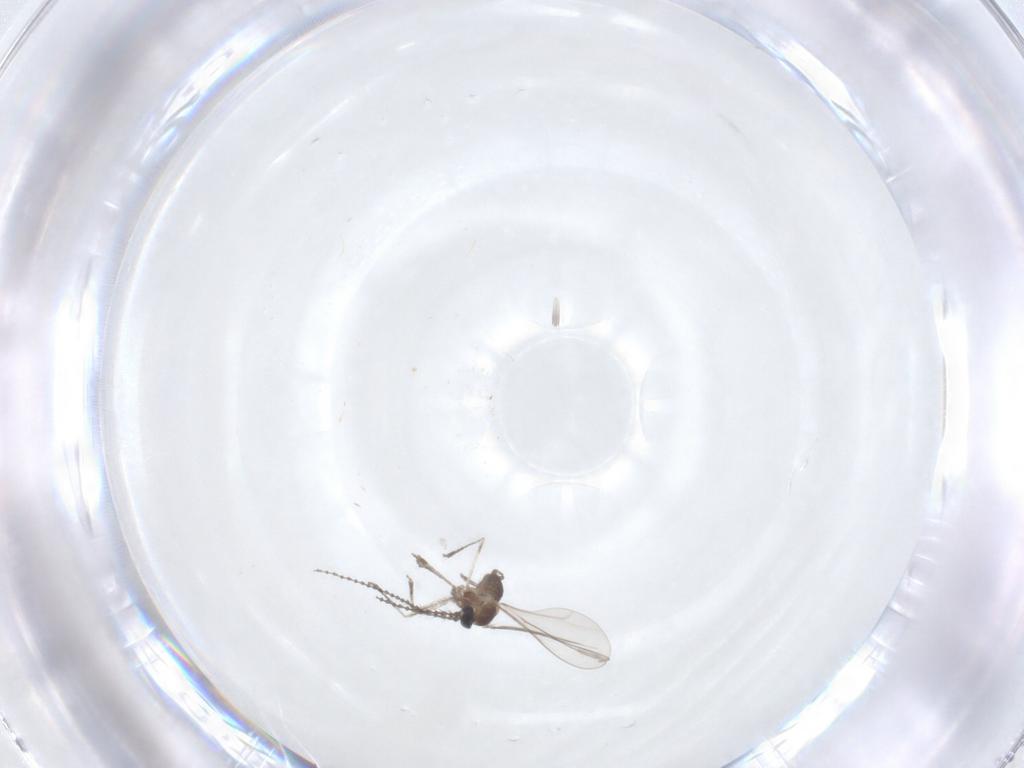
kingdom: Animalia
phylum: Arthropoda
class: Insecta
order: Diptera
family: Cecidomyiidae
